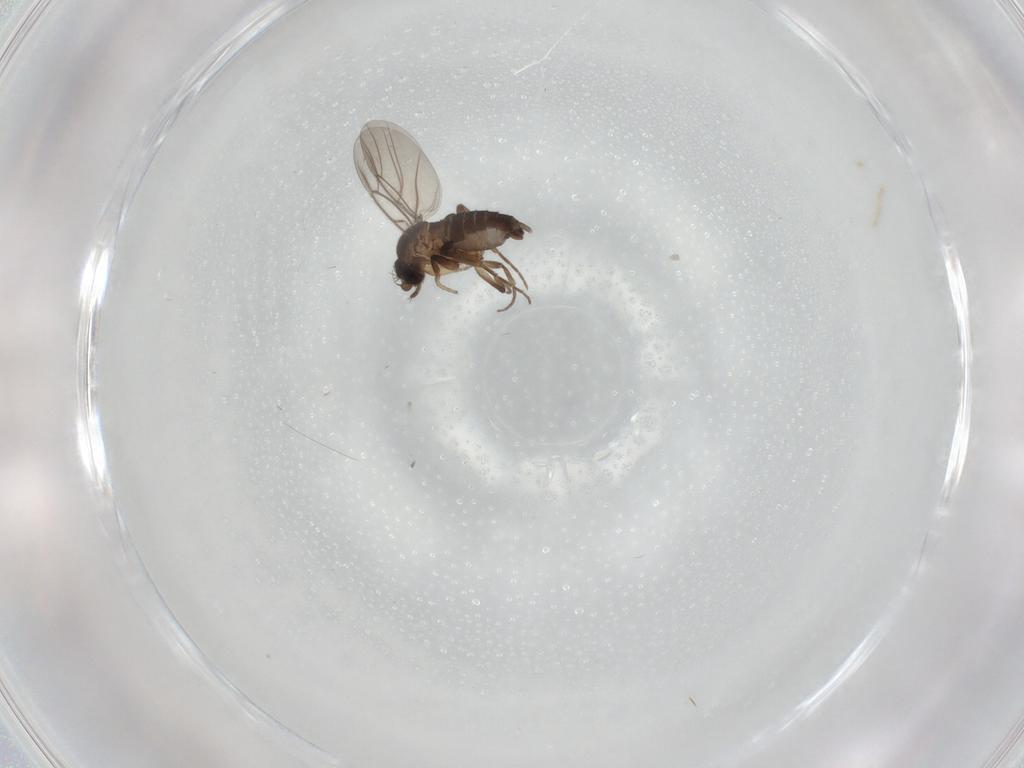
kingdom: Animalia
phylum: Arthropoda
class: Insecta
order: Diptera
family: Phoridae
